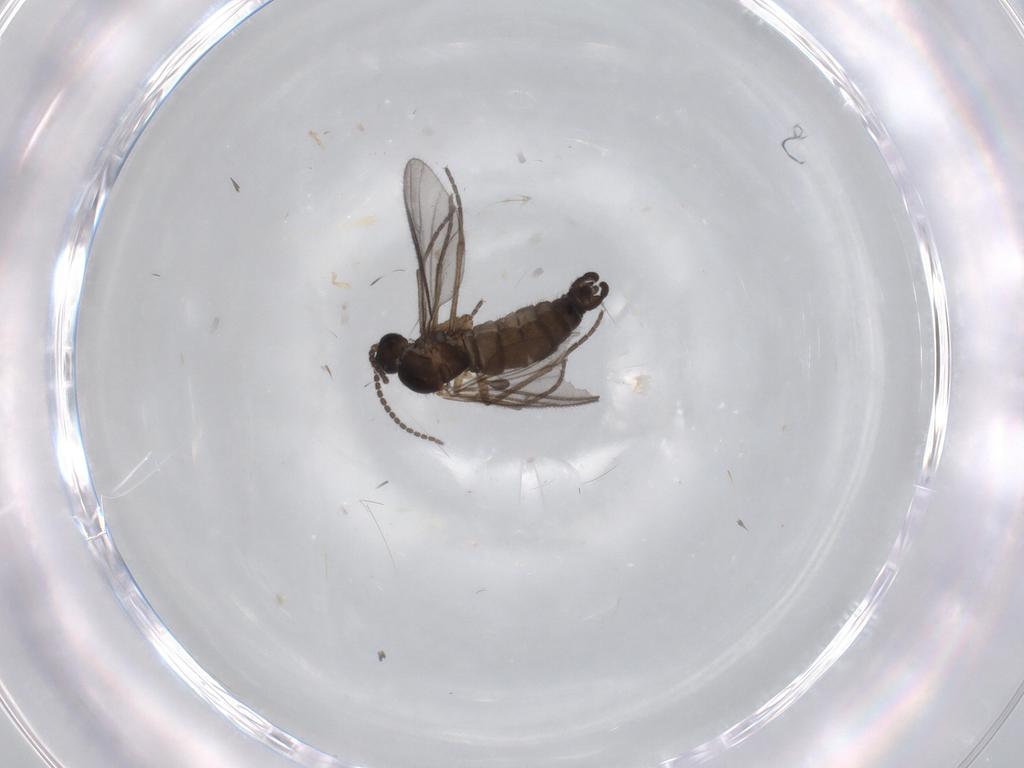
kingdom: Animalia
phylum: Arthropoda
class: Insecta
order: Diptera
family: Sciaridae
